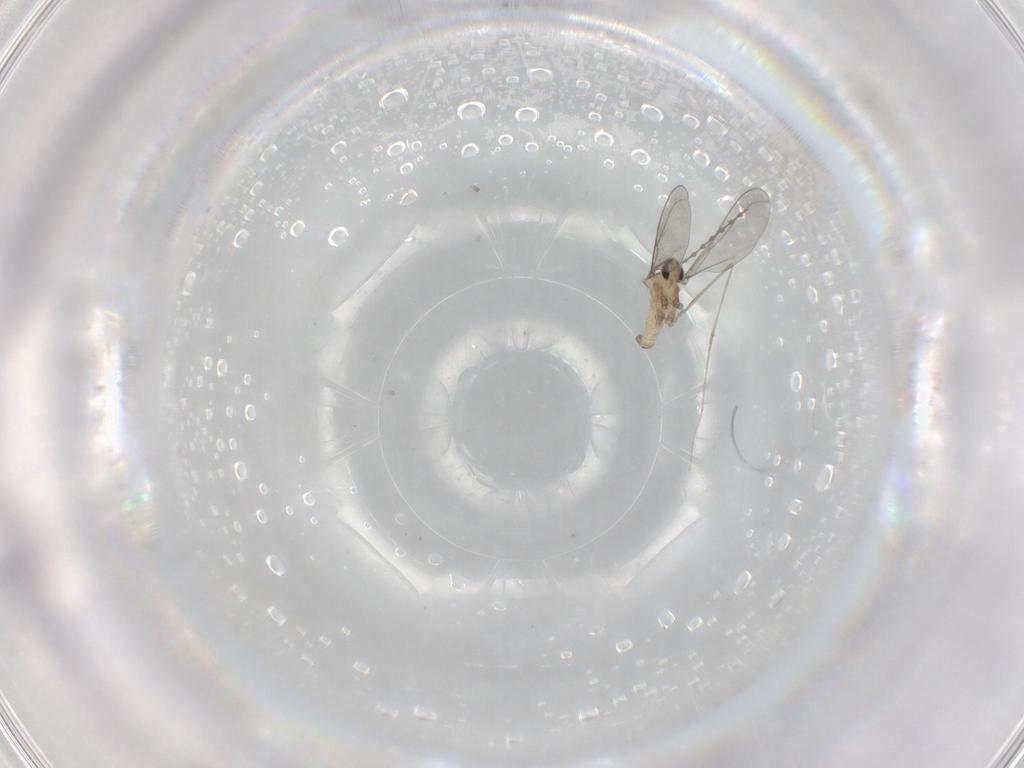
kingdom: Animalia
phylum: Arthropoda
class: Insecta
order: Diptera
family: Cecidomyiidae
